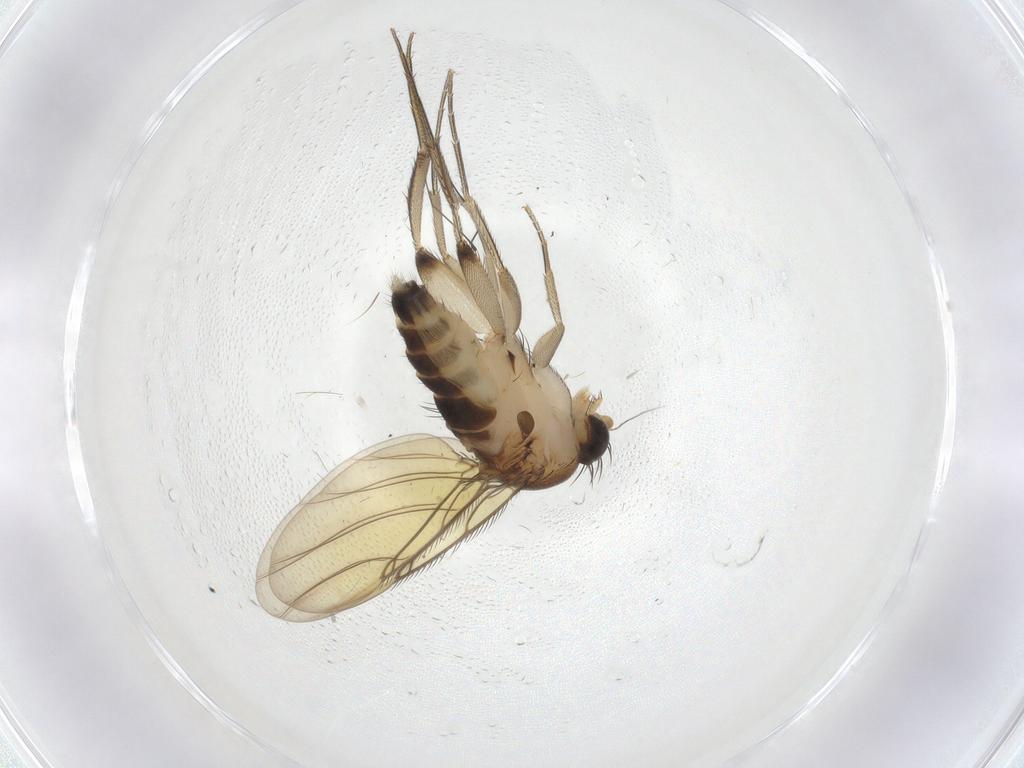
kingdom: Animalia
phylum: Arthropoda
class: Insecta
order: Diptera
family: Phoridae
